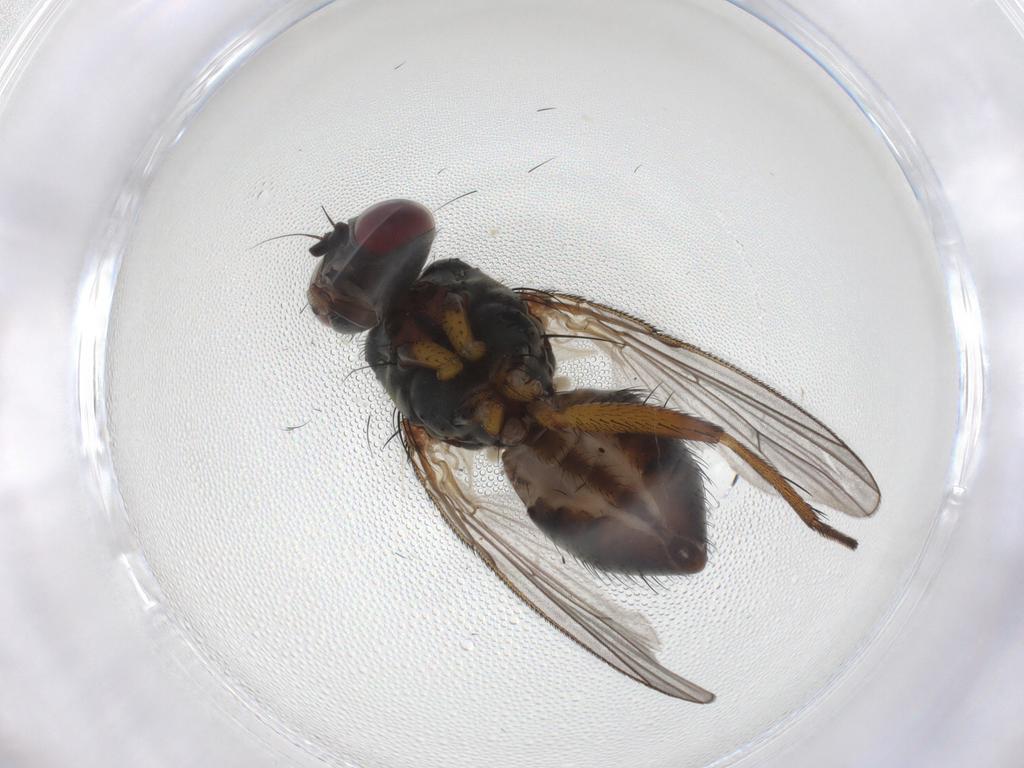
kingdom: Animalia
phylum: Arthropoda
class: Insecta
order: Diptera
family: Muscidae
